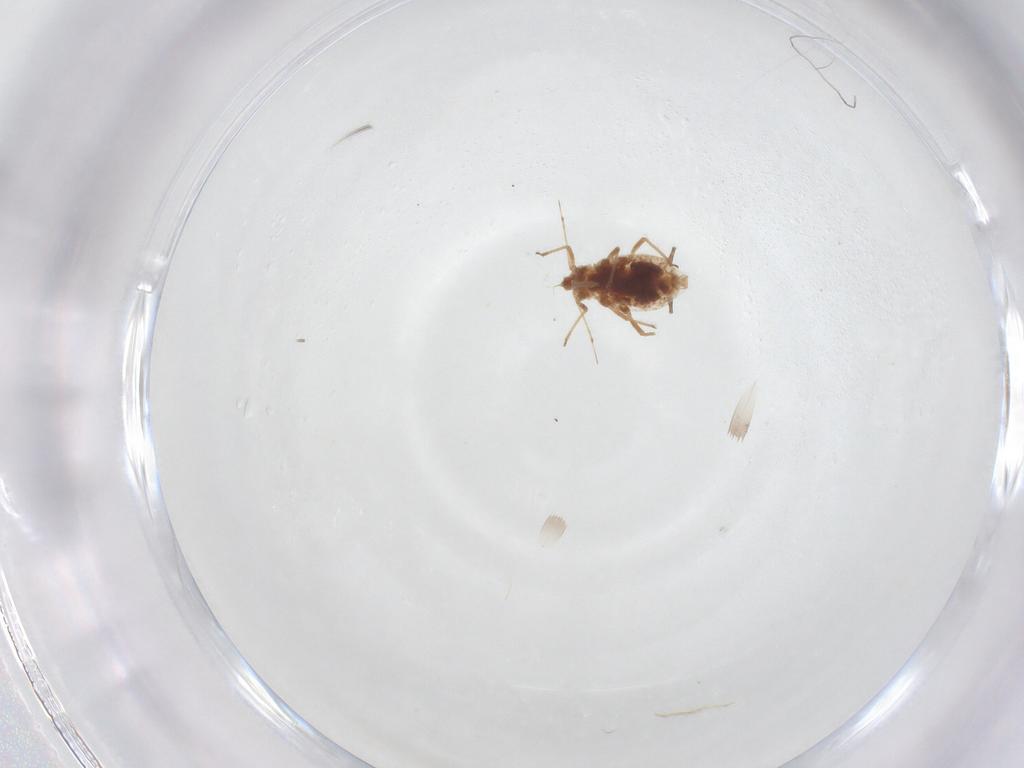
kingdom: Animalia
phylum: Arthropoda
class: Insecta
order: Hemiptera
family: Aphididae
